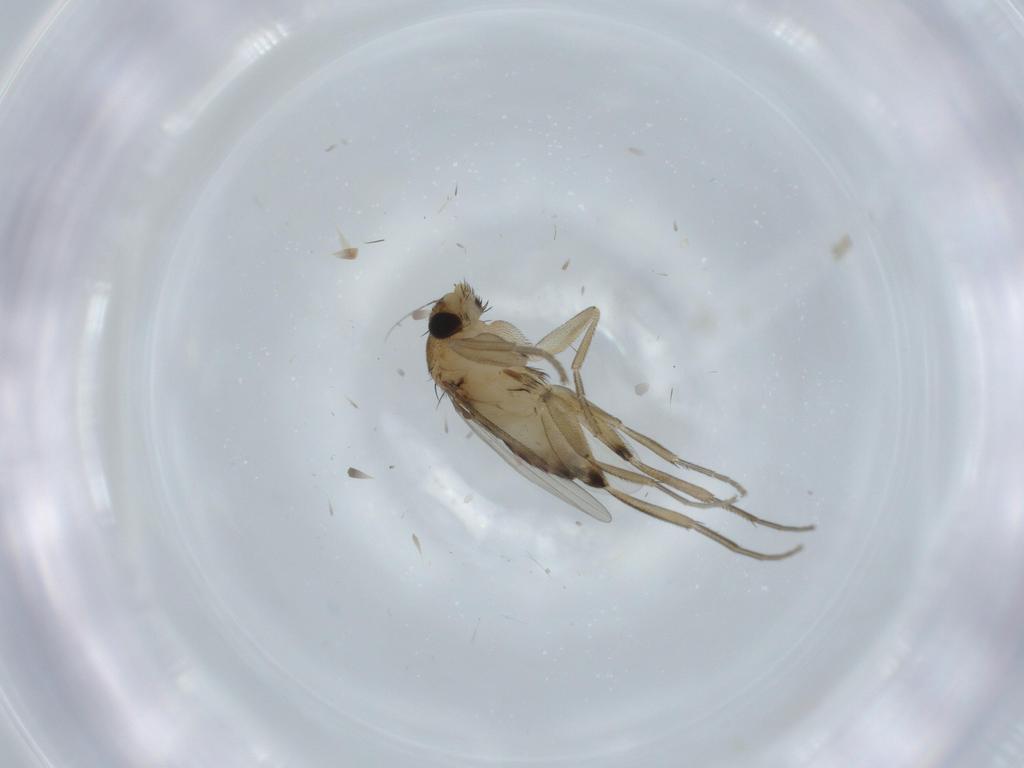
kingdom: Animalia
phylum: Arthropoda
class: Insecta
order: Diptera
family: Phoridae
